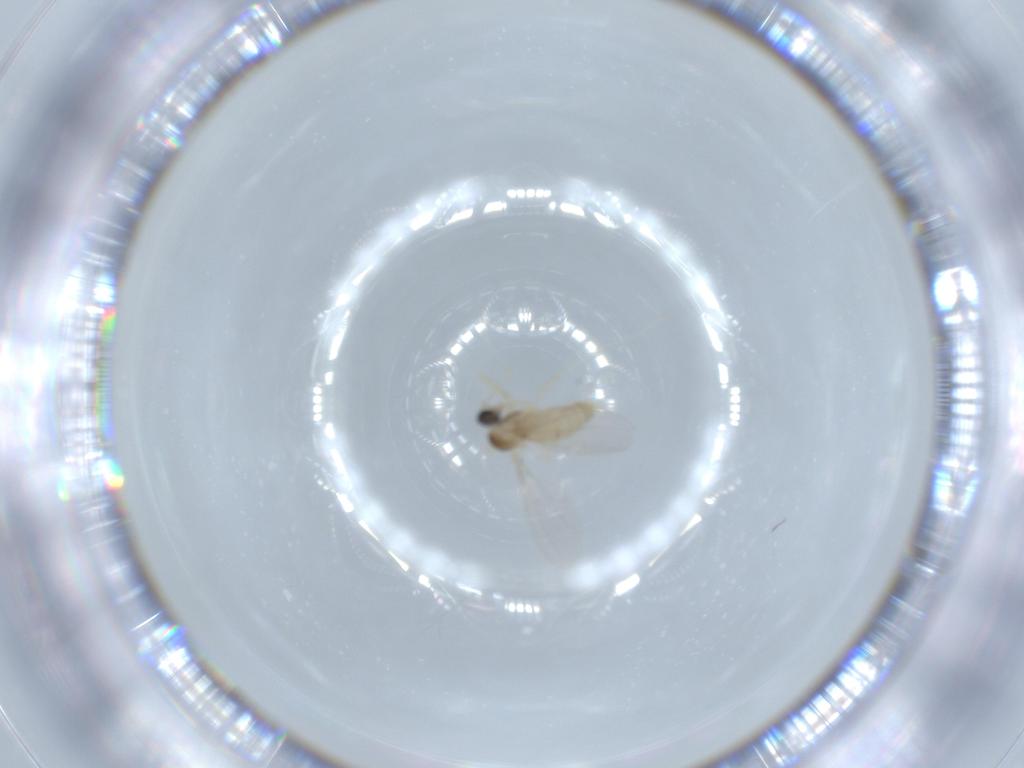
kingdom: Animalia
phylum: Arthropoda
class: Insecta
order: Diptera
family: Cecidomyiidae
